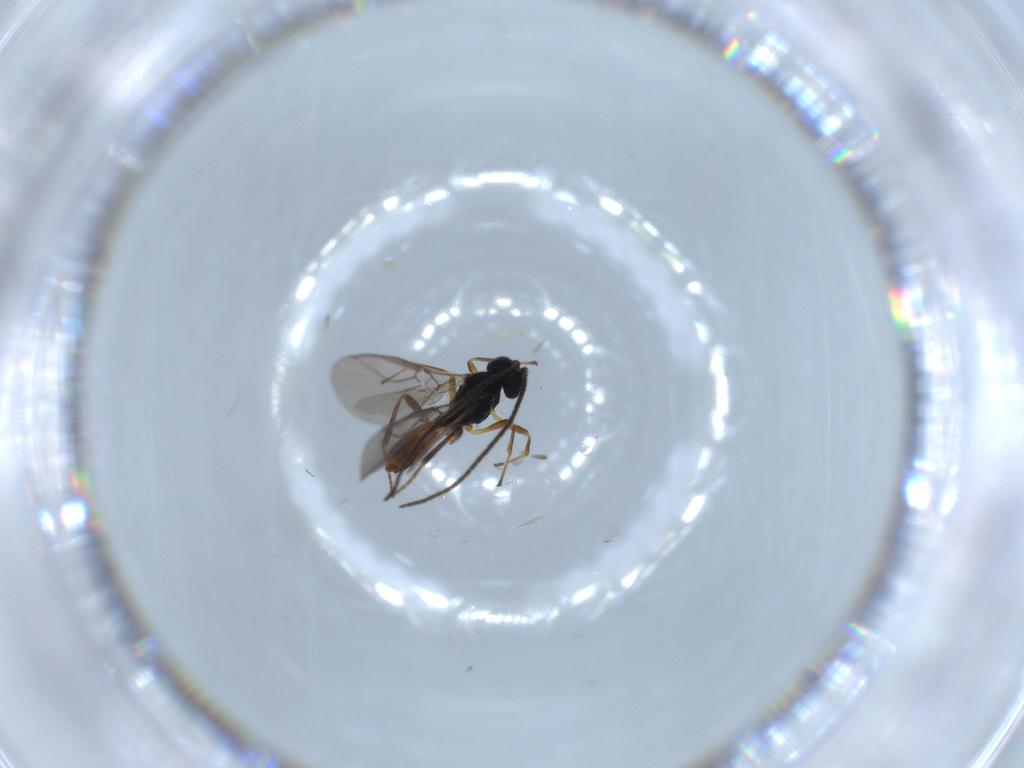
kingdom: Animalia
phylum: Arthropoda
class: Insecta
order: Hymenoptera
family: Braconidae
